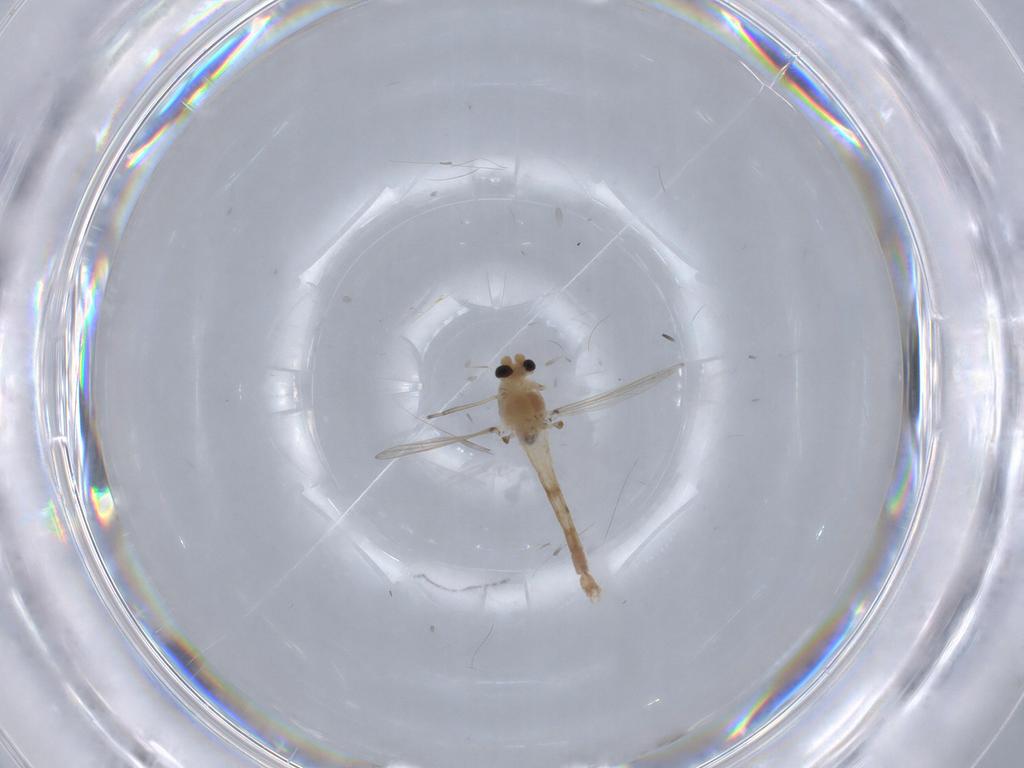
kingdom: Animalia
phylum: Arthropoda
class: Insecta
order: Diptera
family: Chironomidae
